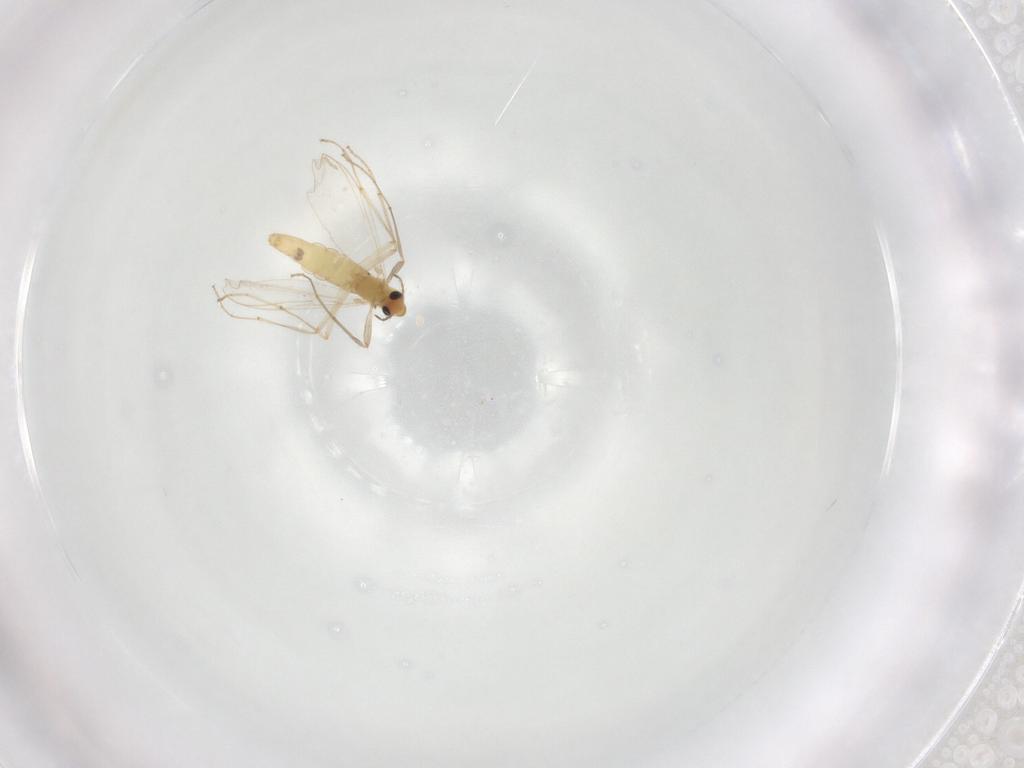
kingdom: Animalia
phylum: Arthropoda
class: Insecta
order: Diptera
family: Chironomidae
